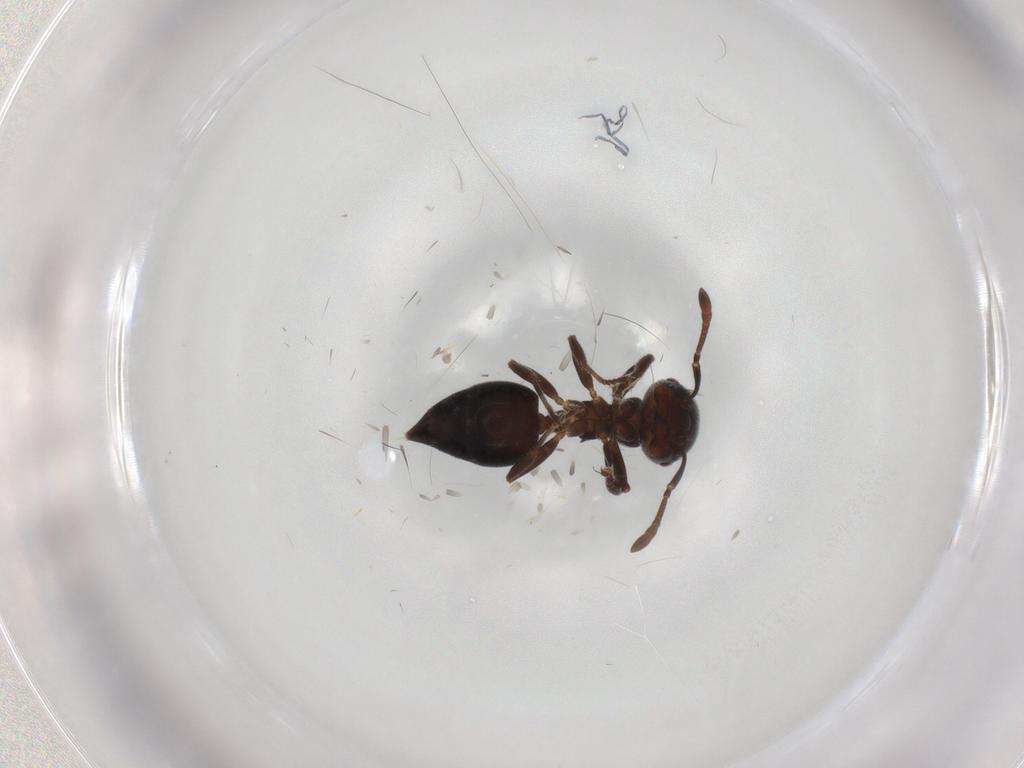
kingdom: Animalia
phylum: Arthropoda
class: Insecta
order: Hymenoptera
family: Formicidae
